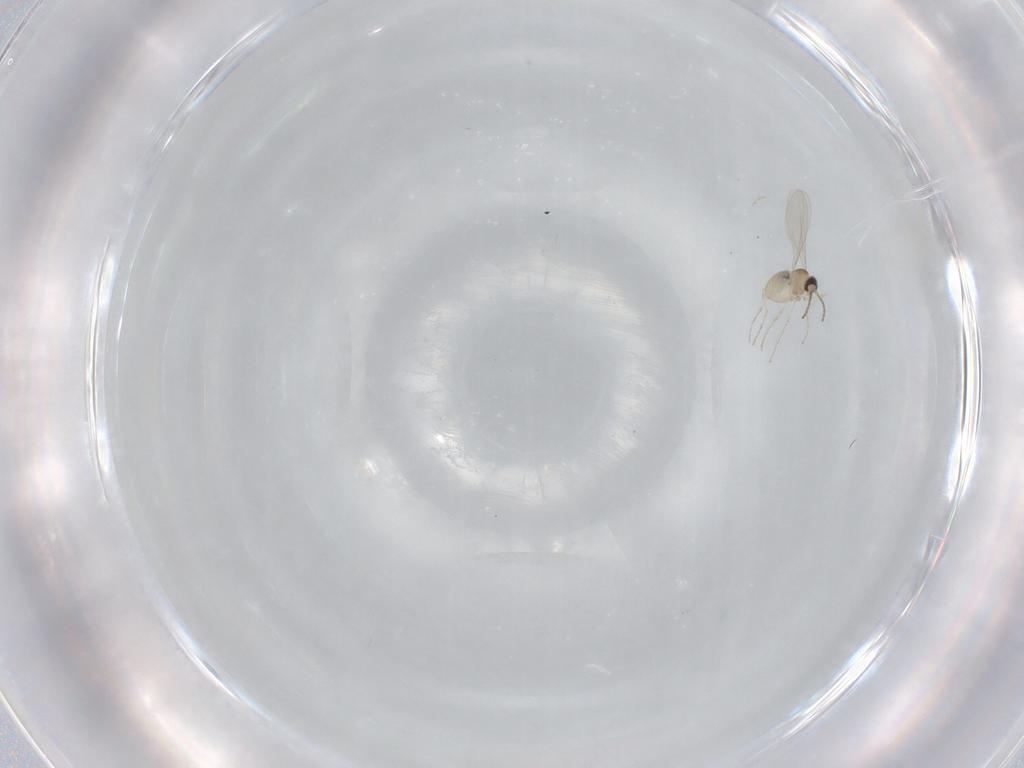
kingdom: Animalia
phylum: Arthropoda
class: Insecta
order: Diptera
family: Cecidomyiidae
